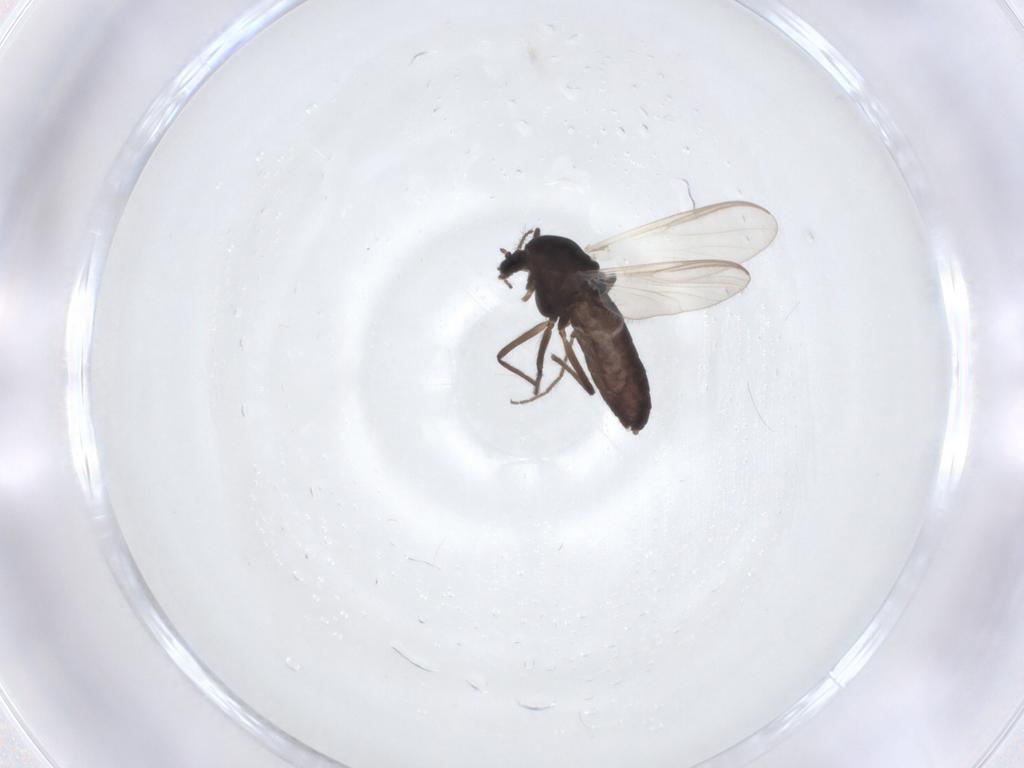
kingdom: Animalia
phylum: Arthropoda
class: Insecta
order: Diptera
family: Chironomidae
